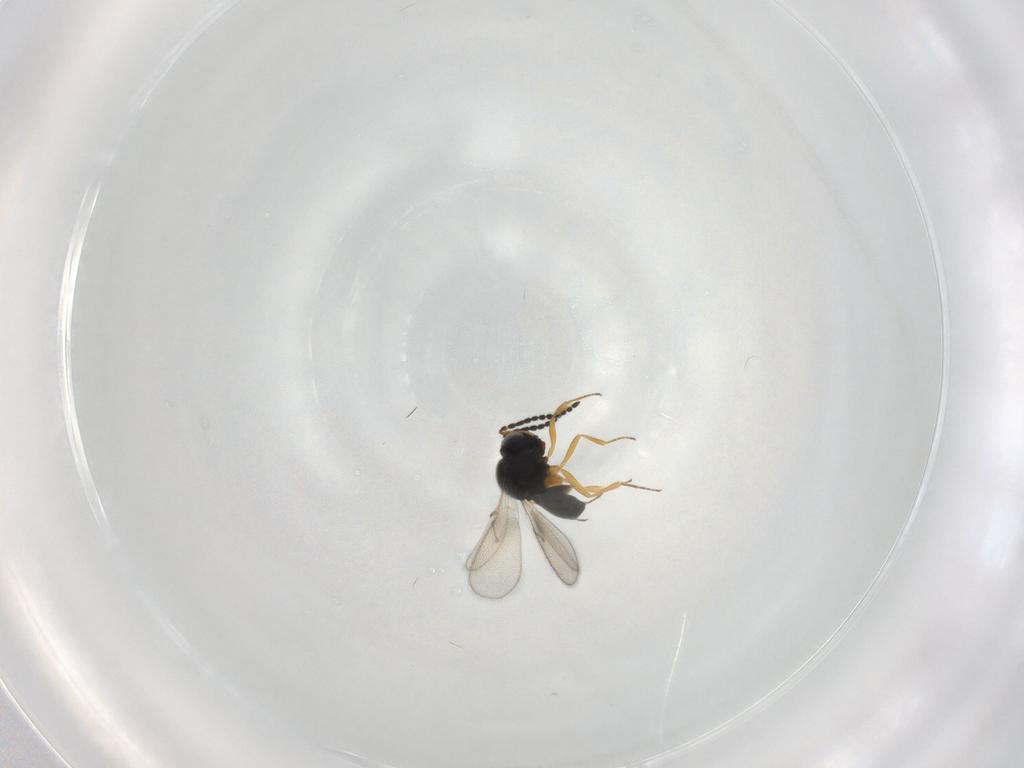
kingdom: Animalia
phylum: Arthropoda
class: Insecta
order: Hymenoptera
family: Scelionidae
